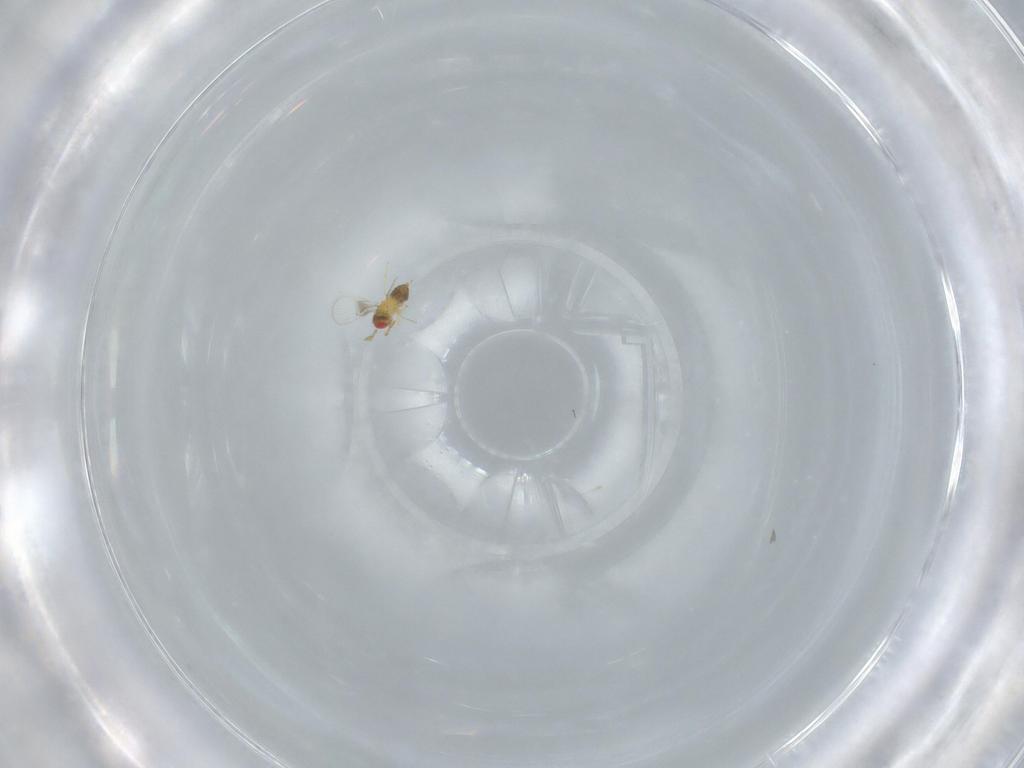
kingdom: Animalia
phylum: Arthropoda
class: Insecta
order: Hymenoptera
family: Trichogrammatidae
